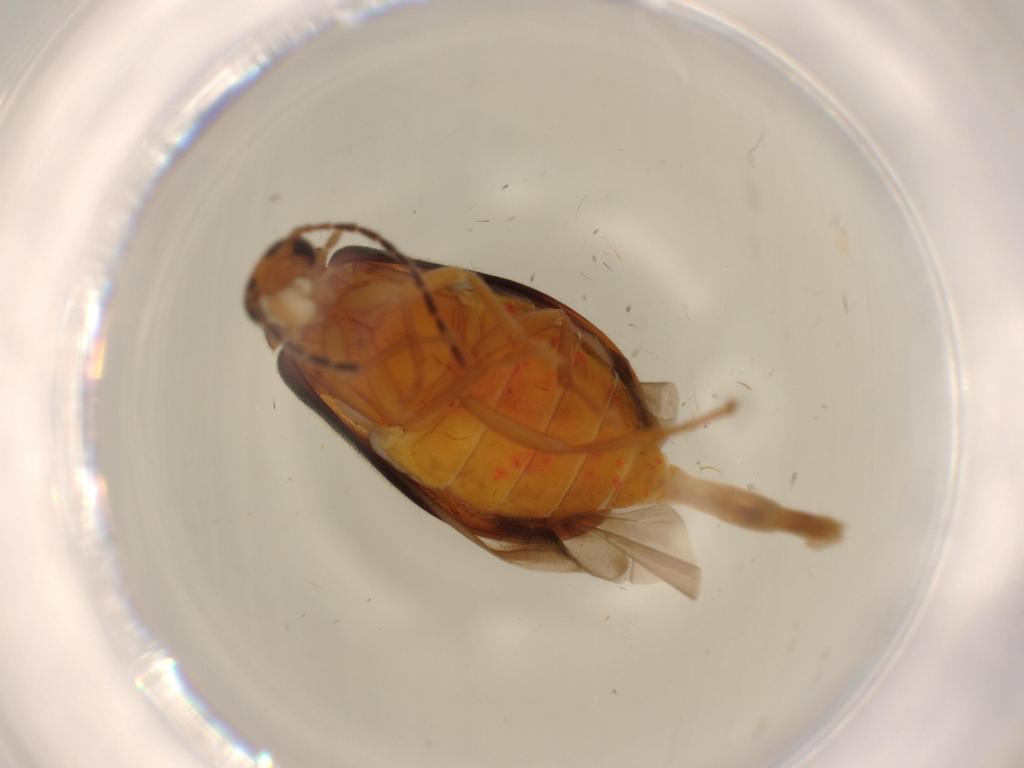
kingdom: Animalia
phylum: Arthropoda
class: Insecta
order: Coleoptera
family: Scraptiidae
